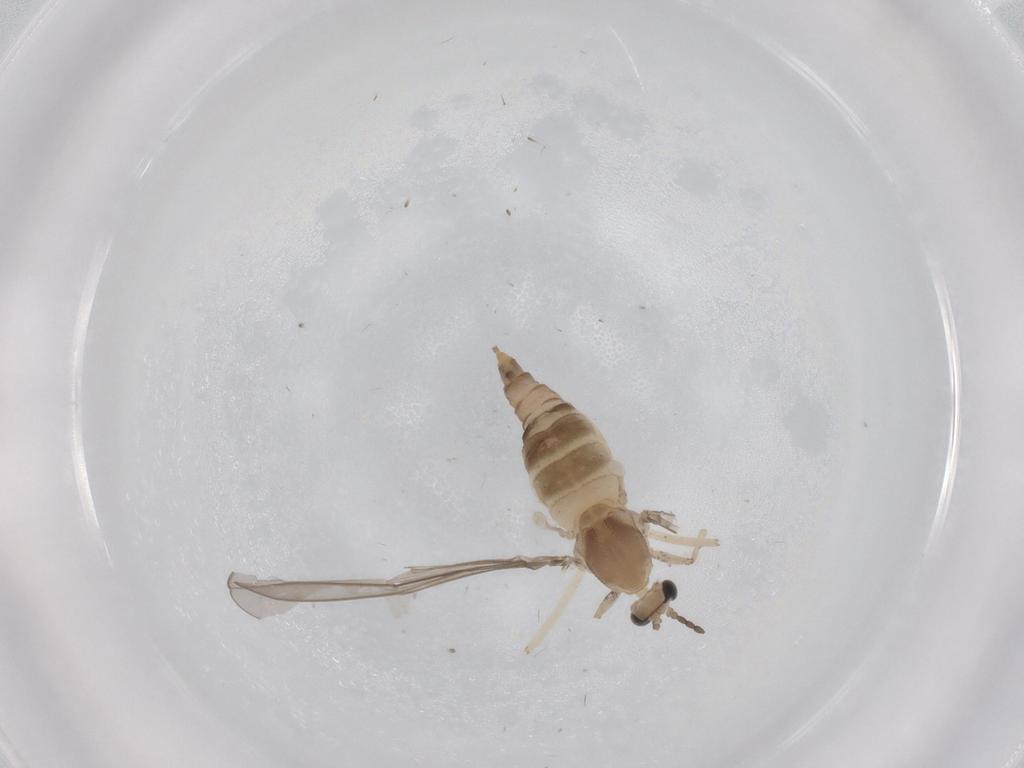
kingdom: Animalia
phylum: Arthropoda
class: Insecta
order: Diptera
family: Cecidomyiidae
